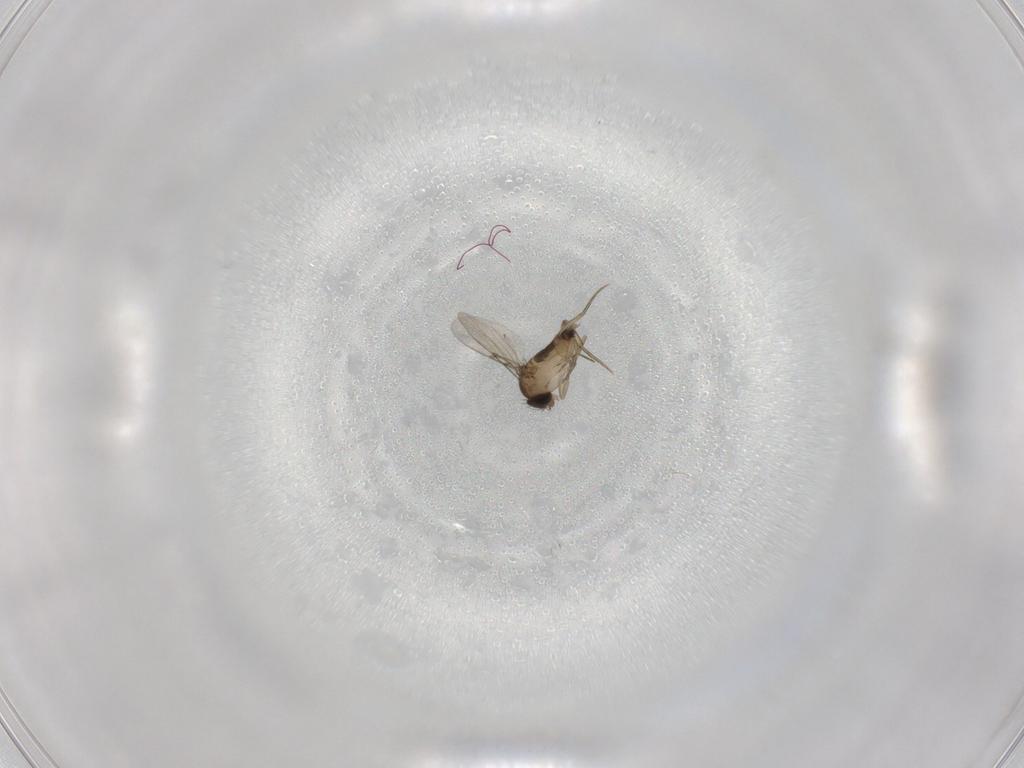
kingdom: Animalia
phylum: Arthropoda
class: Insecta
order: Diptera
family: Phoridae
